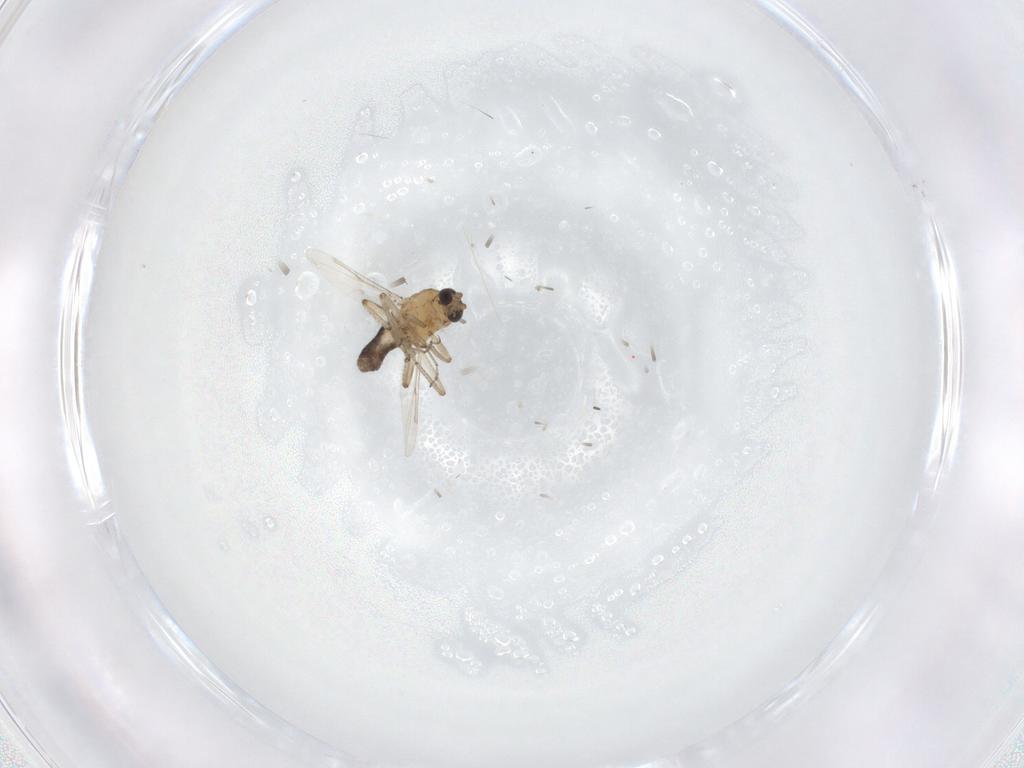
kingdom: Animalia
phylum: Arthropoda
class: Insecta
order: Diptera
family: Ceratopogonidae
